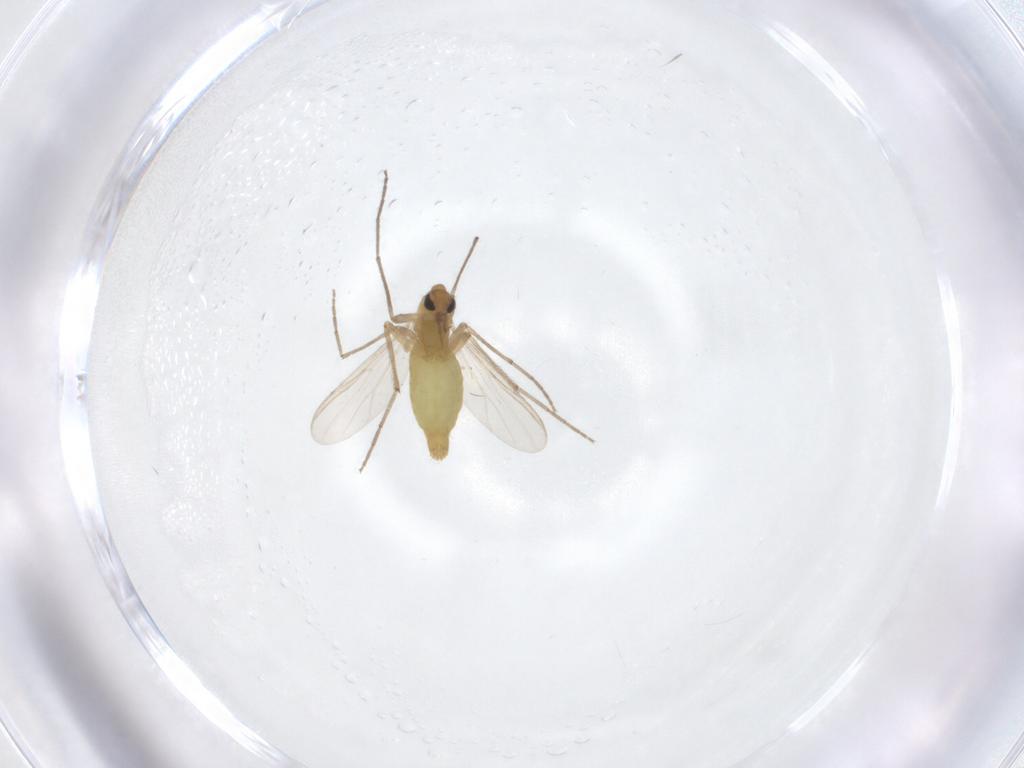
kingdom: Animalia
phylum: Arthropoda
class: Insecta
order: Diptera
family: Chironomidae
